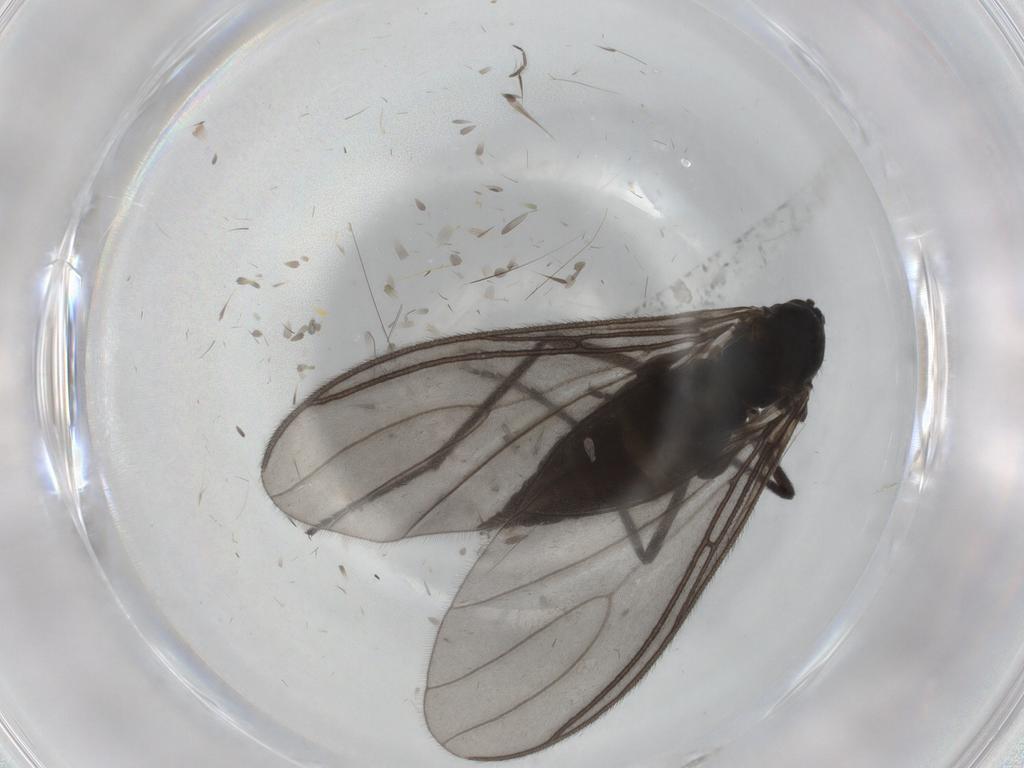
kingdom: Animalia
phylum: Arthropoda
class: Insecta
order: Diptera
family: Sciaridae
